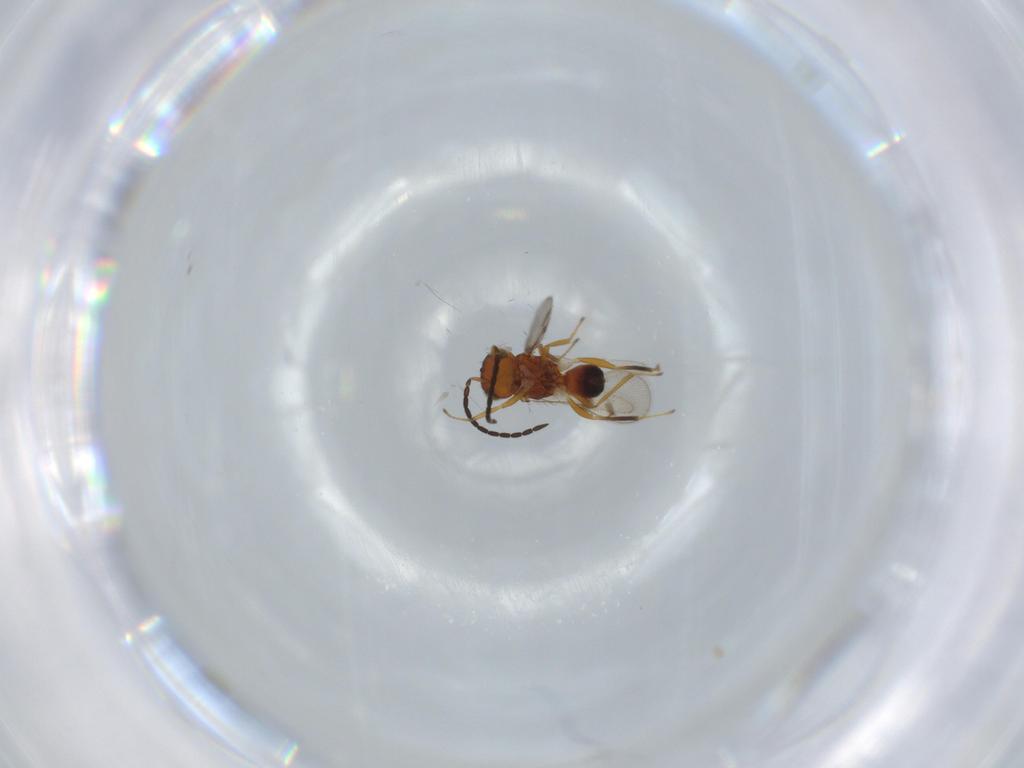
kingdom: Animalia
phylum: Arthropoda
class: Insecta
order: Hymenoptera
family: Diparidae
